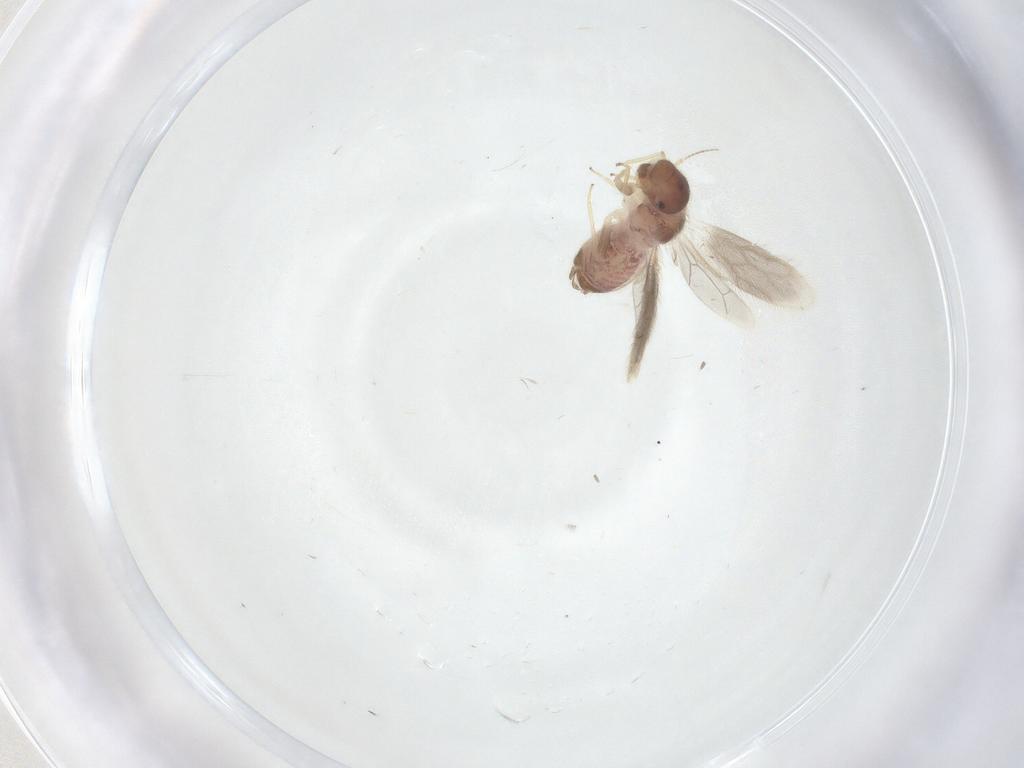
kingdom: Animalia
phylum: Arthropoda
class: Insecta
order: Psocodea
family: Archipsocidae
